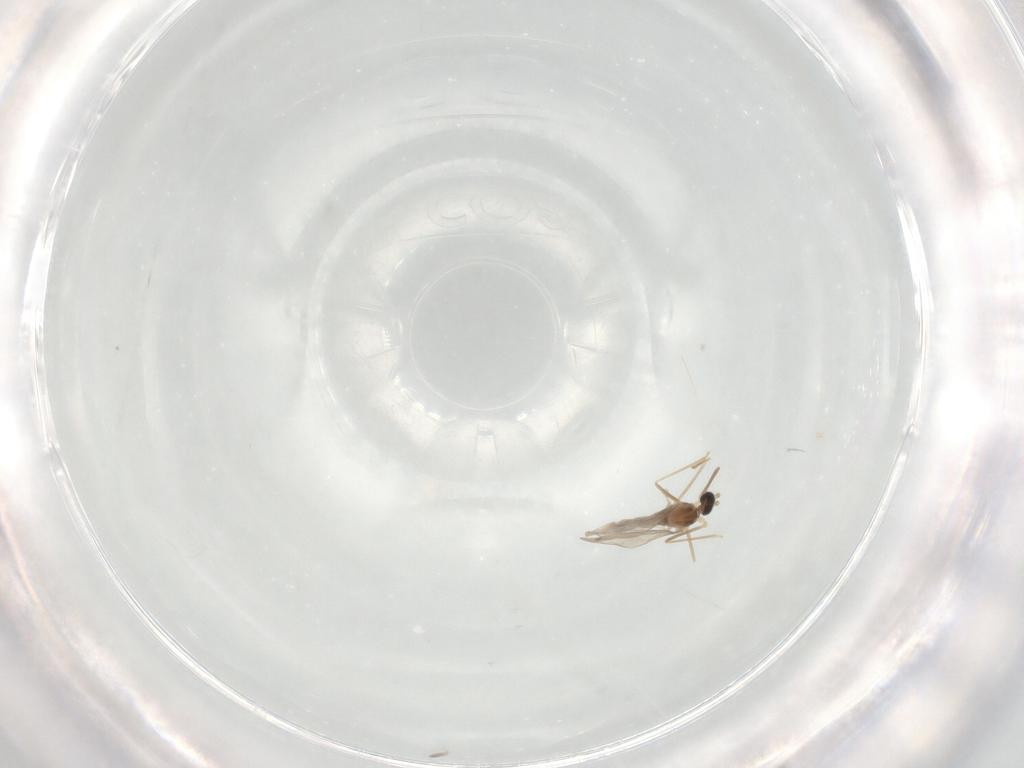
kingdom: Animalia
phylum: Arthropoda
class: Insecta
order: Diptera
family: Cecidomyiidae
